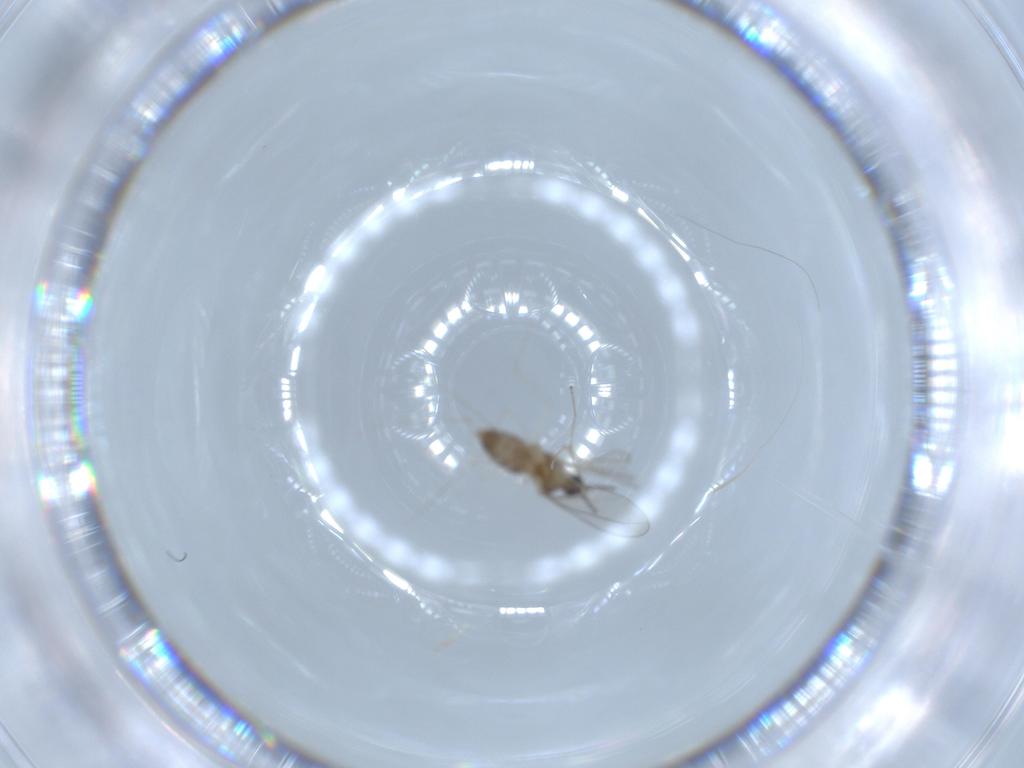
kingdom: Animalia
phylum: Arthropoda
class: Insecta
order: Diptera
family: Cecidomyiidae
